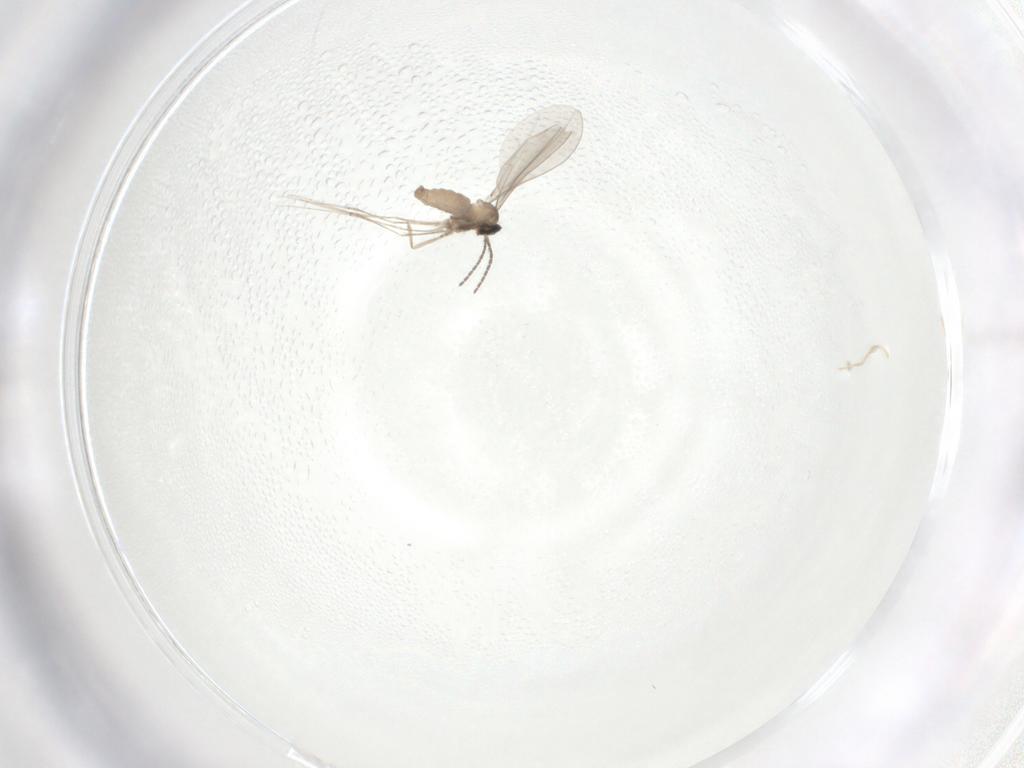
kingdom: Animalia
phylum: Arthropoda
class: Insecta
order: Diptera
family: Cecidomyiidae
